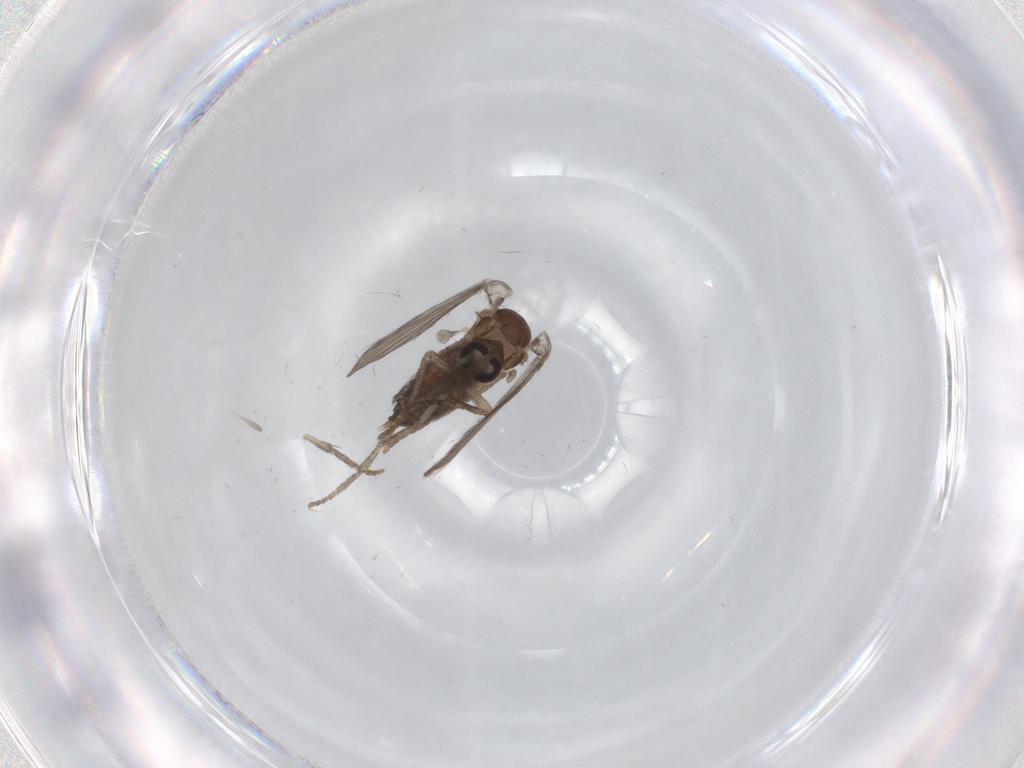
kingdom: Animalia
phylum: Arthropoda
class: Insecta
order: Diptera
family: Psychodidae
